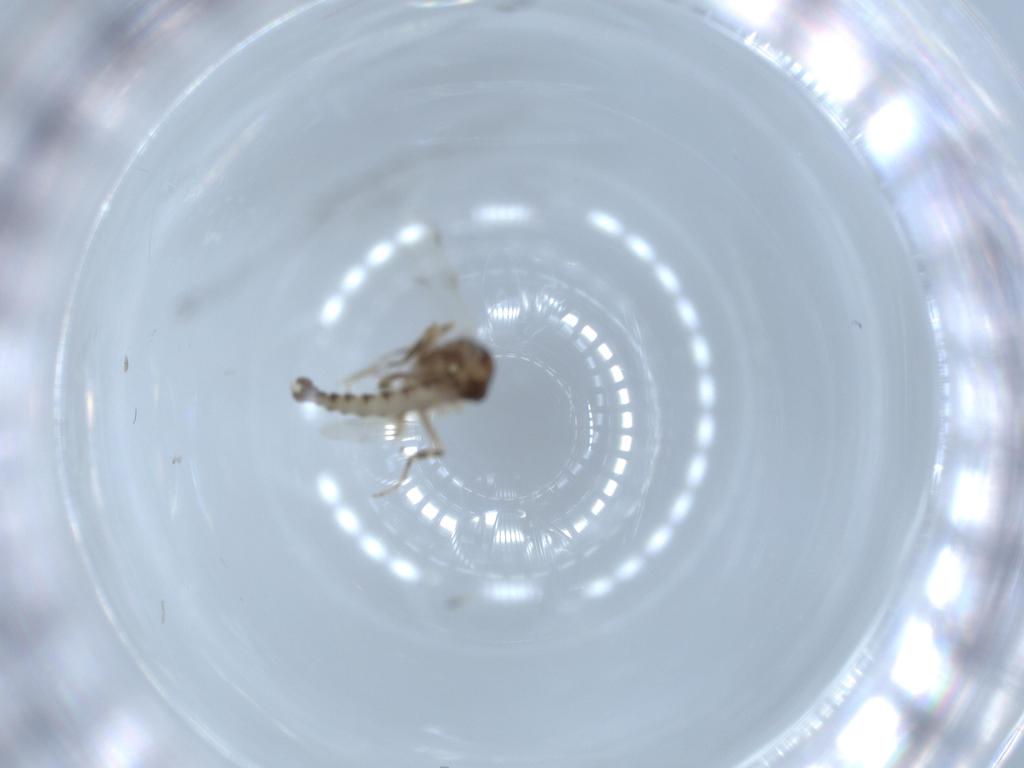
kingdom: Animalia
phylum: Arthropoda
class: Insecta
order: Diptera
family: Ceratopogonidae
